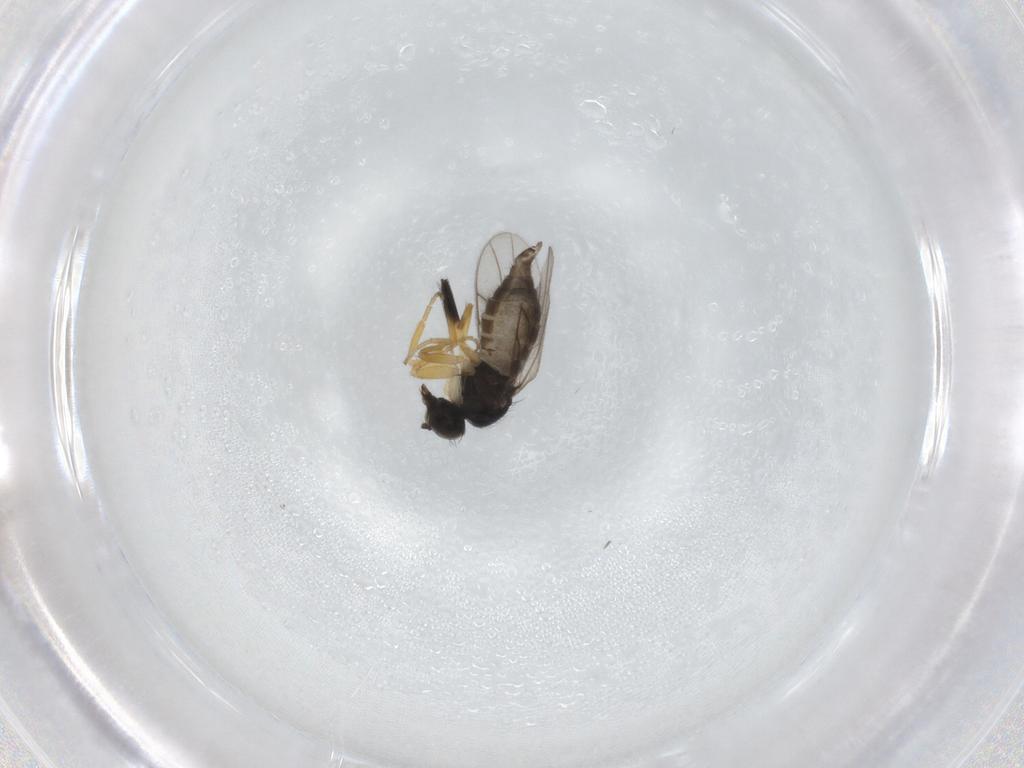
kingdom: Animalia
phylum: Arthropoda
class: Insecta
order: Diptera
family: Hybotidae
